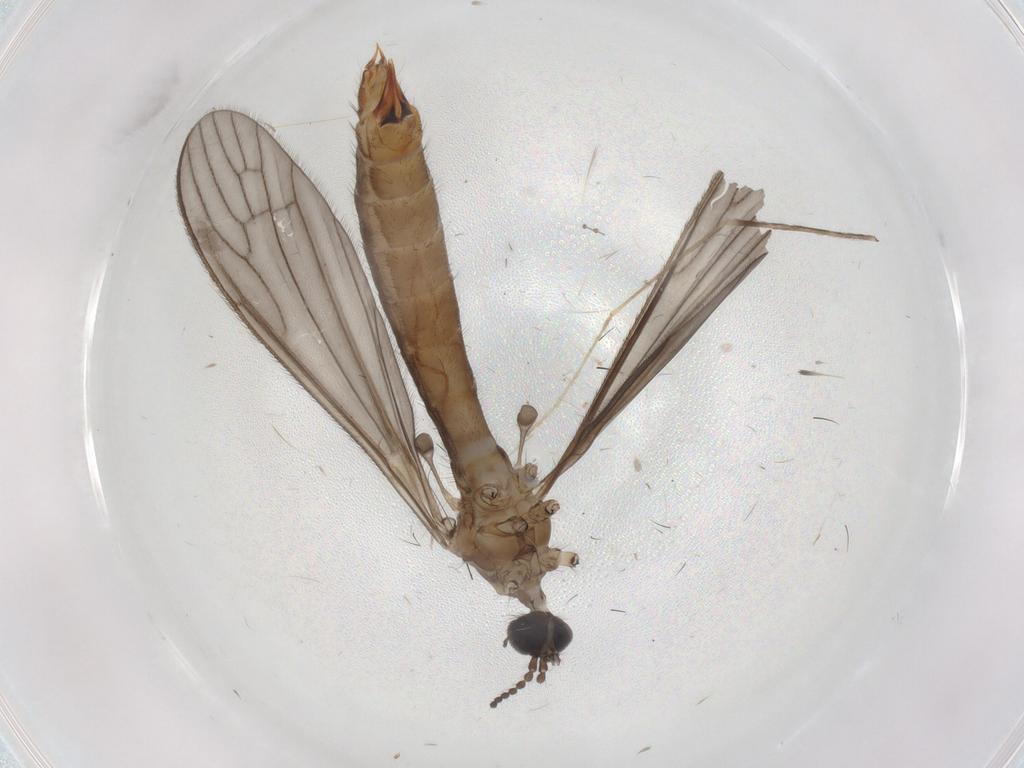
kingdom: Animalia
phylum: Arthropoda
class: Insecta
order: Diptera
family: Limoniidae
